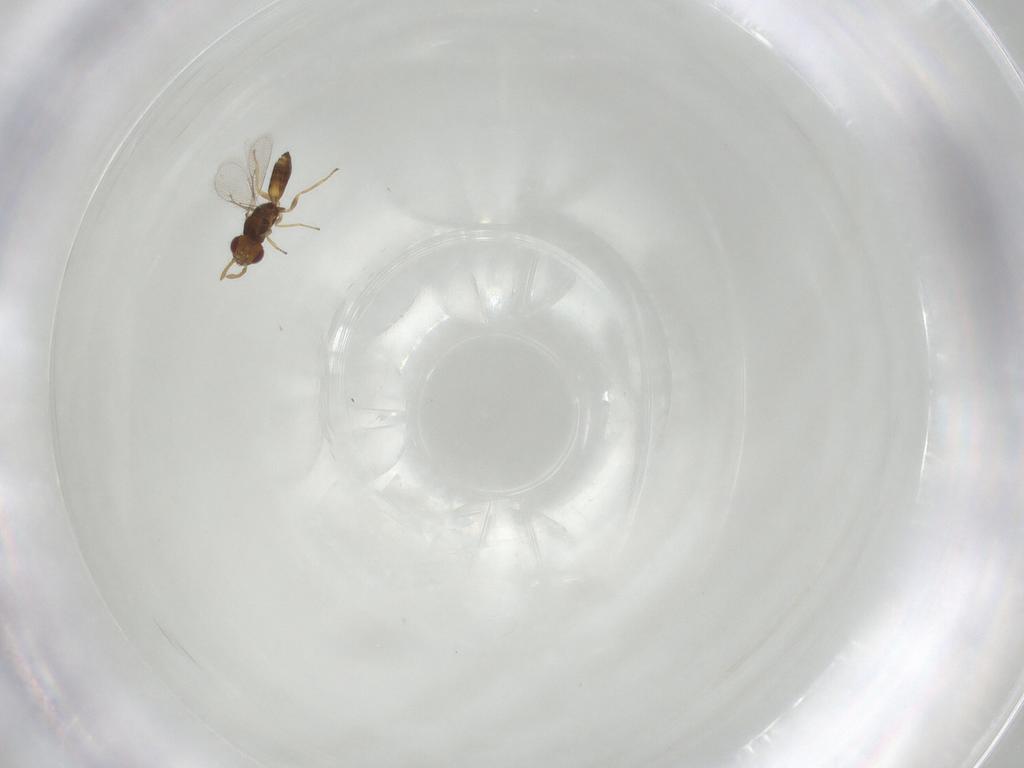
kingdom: Animalia
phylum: Arthropoda
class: Insecta
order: Hymenoptera
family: Eulophidae
